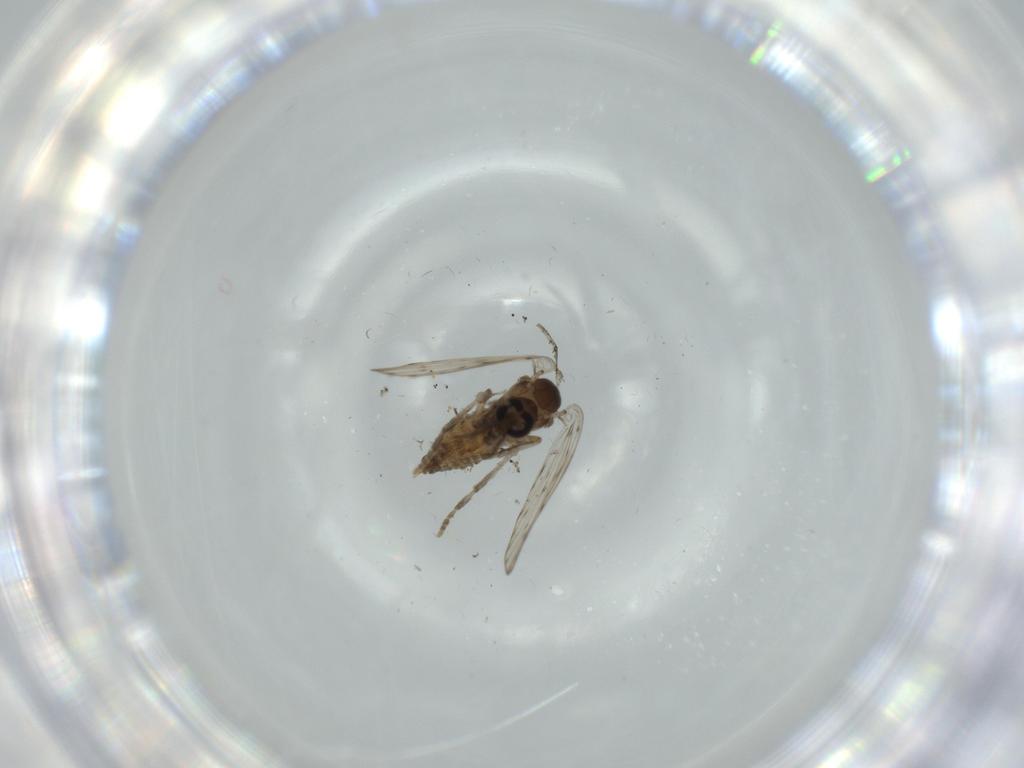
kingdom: Animalia
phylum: Arthropoda
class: Insecta
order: Diptera
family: Psychodidae
